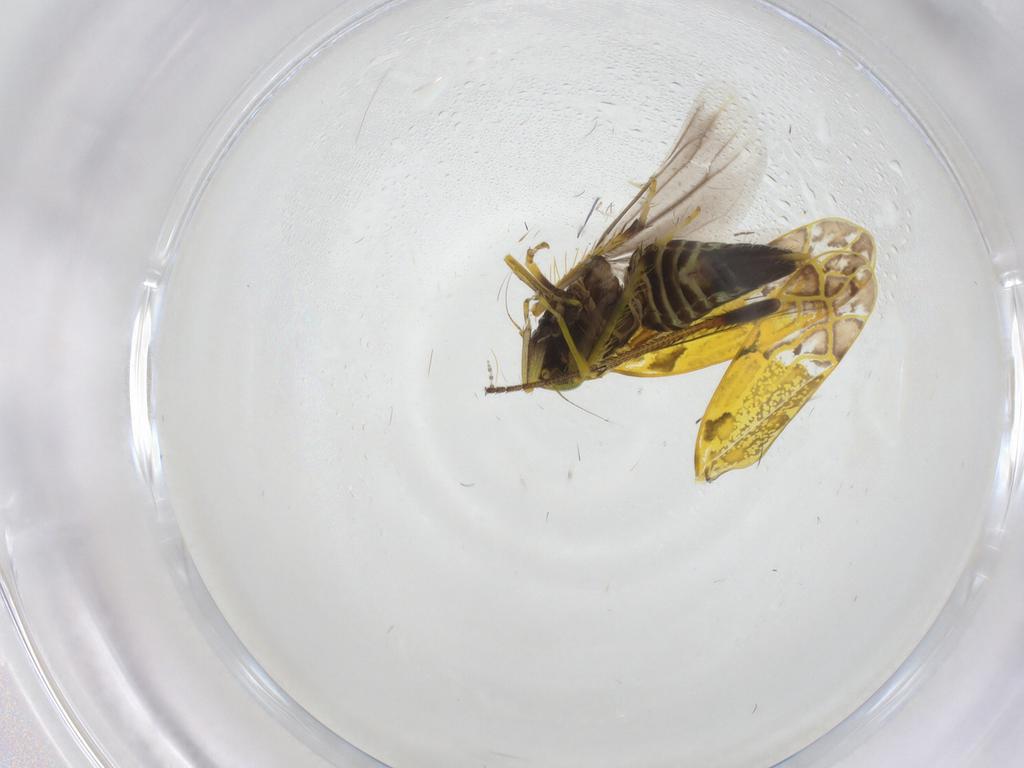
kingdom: Animalia
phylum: Arthropoda
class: Insecta
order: Hemiptera
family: Cicadellidae
